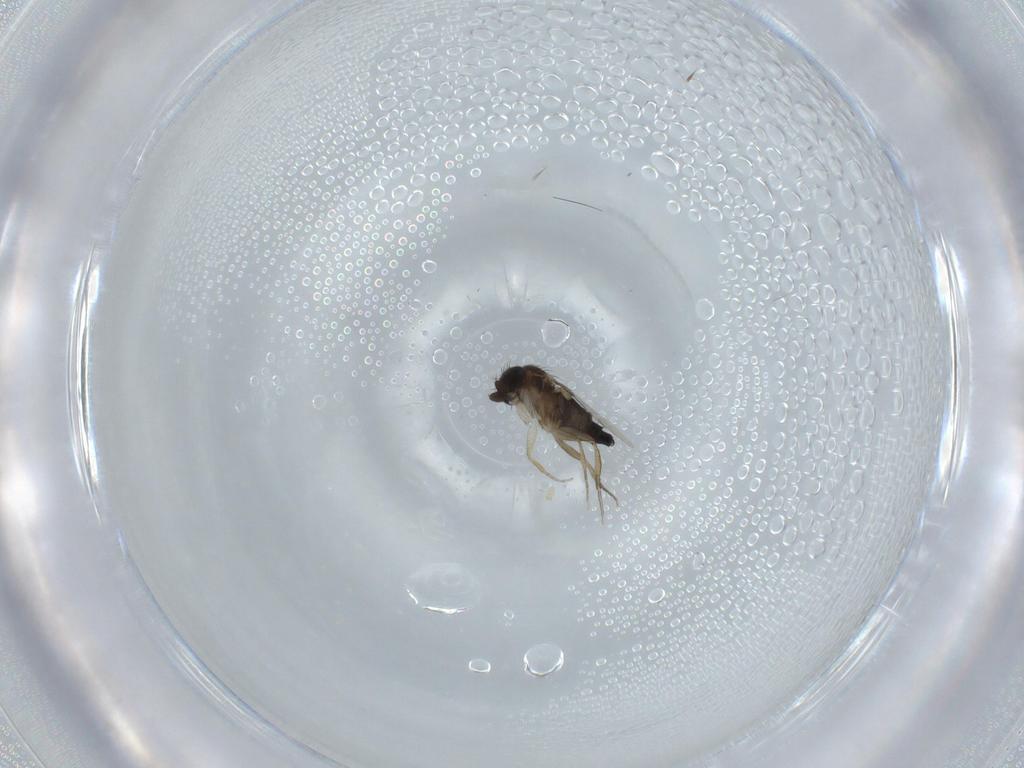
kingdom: Animalia
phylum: Arthropoda
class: Insecta
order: Diptera
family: Phoridae
